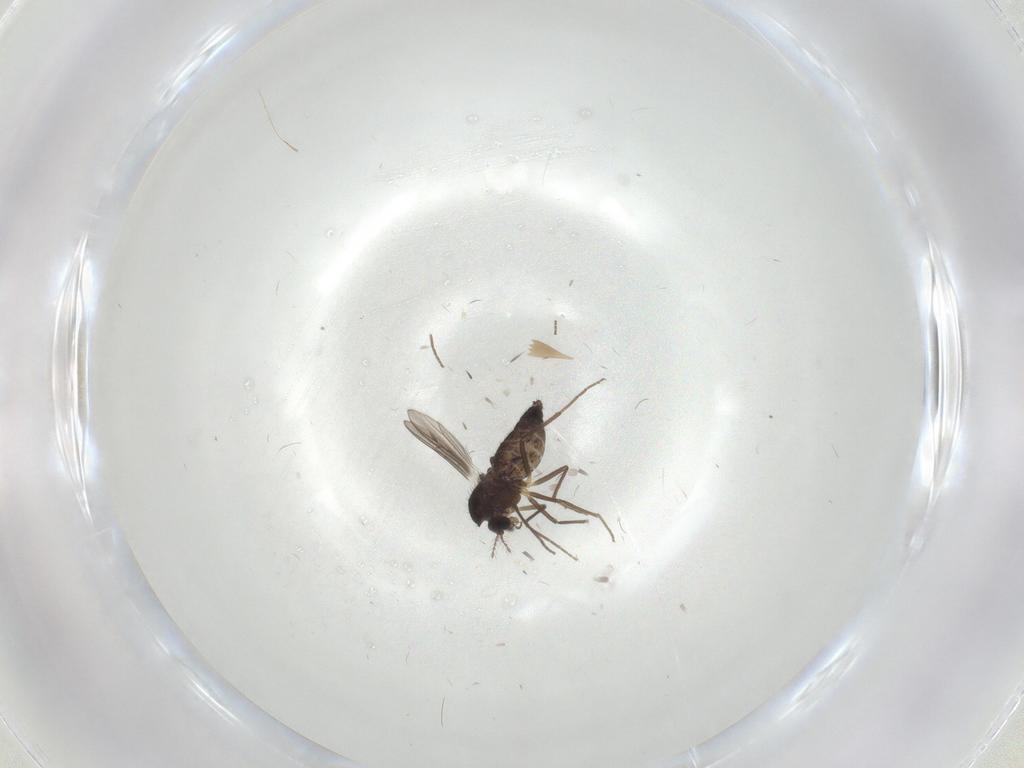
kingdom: Animalia
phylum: Arthropoda
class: Insecta
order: Diptera
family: Chironomidae
